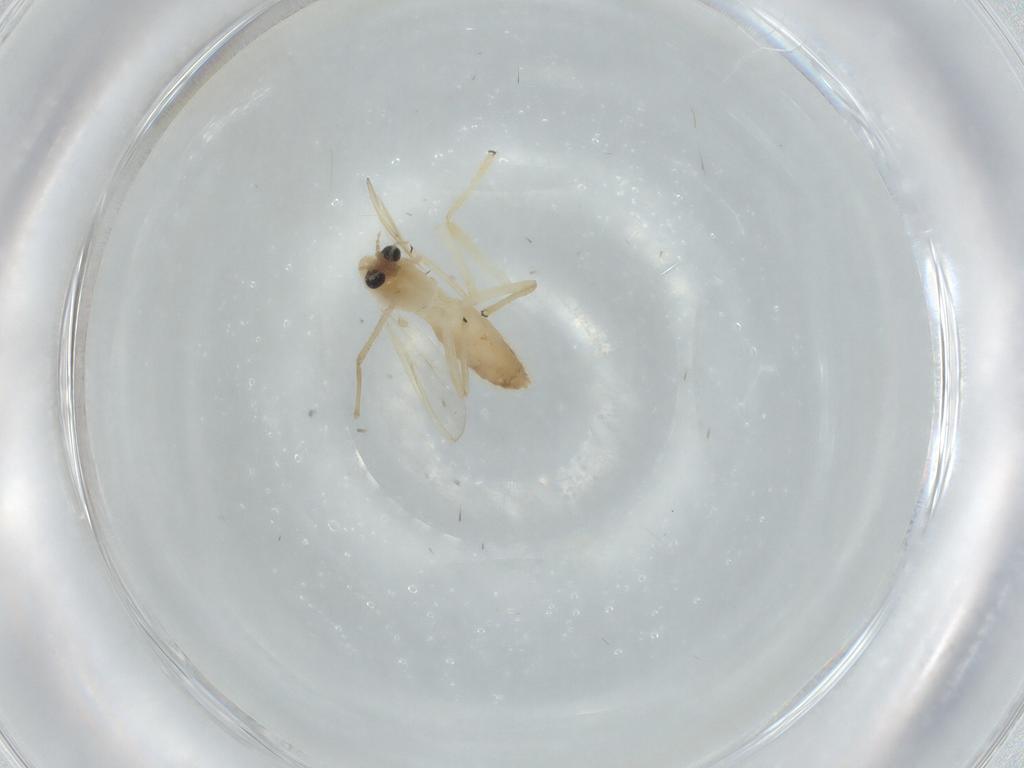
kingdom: Animalia
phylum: Arthropoda
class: Insecta
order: Diptera
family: Chironomidae
